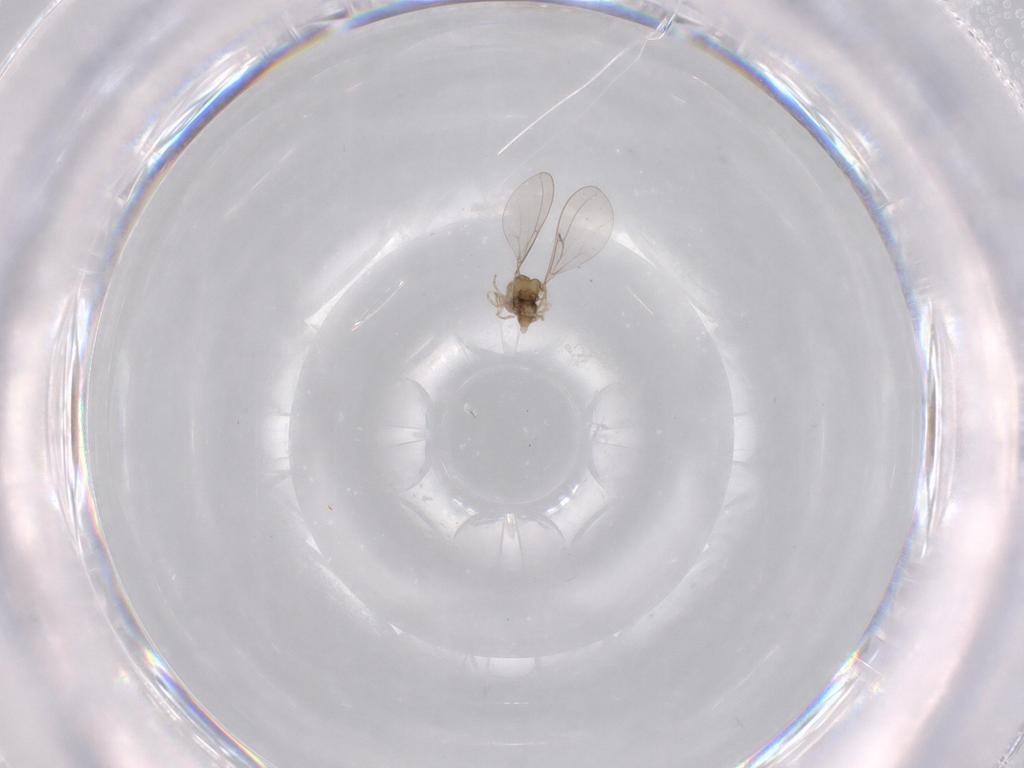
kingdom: Animalia
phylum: Arthropoda
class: Insecta
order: Diptera
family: Cecidomyiidae
